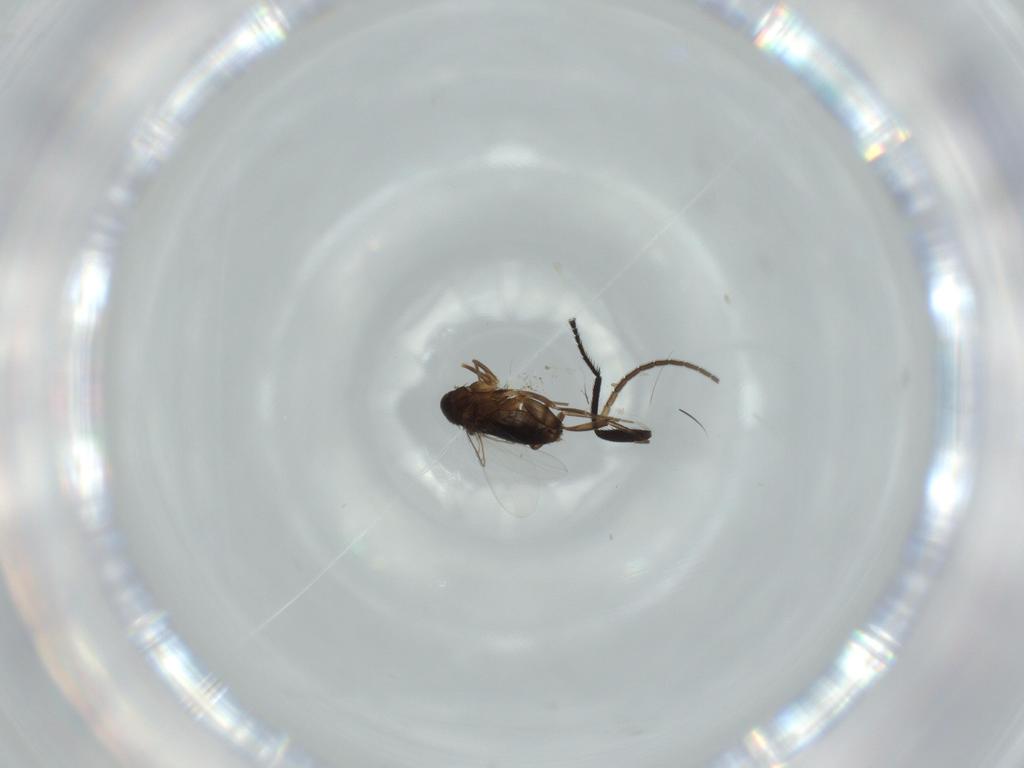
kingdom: Animalia
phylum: Arthropoda
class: Insecta
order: Diptera
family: Phoridae
